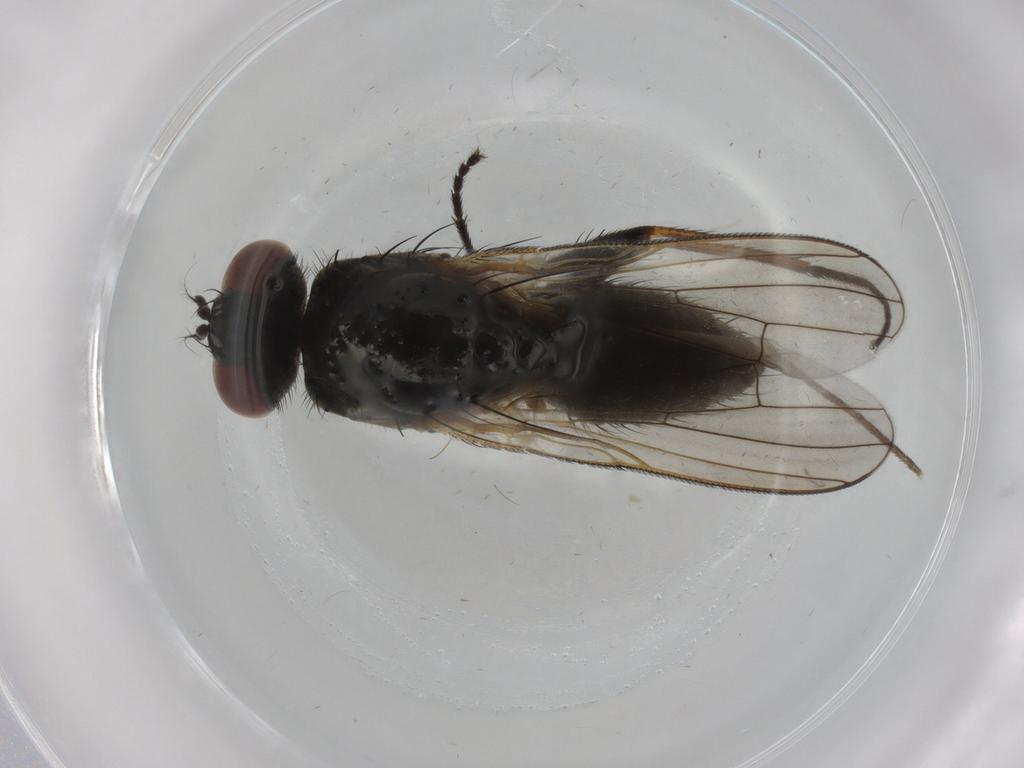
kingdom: Animalia
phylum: Arthropoda
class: Insecta
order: Diptera
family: Muscidae
